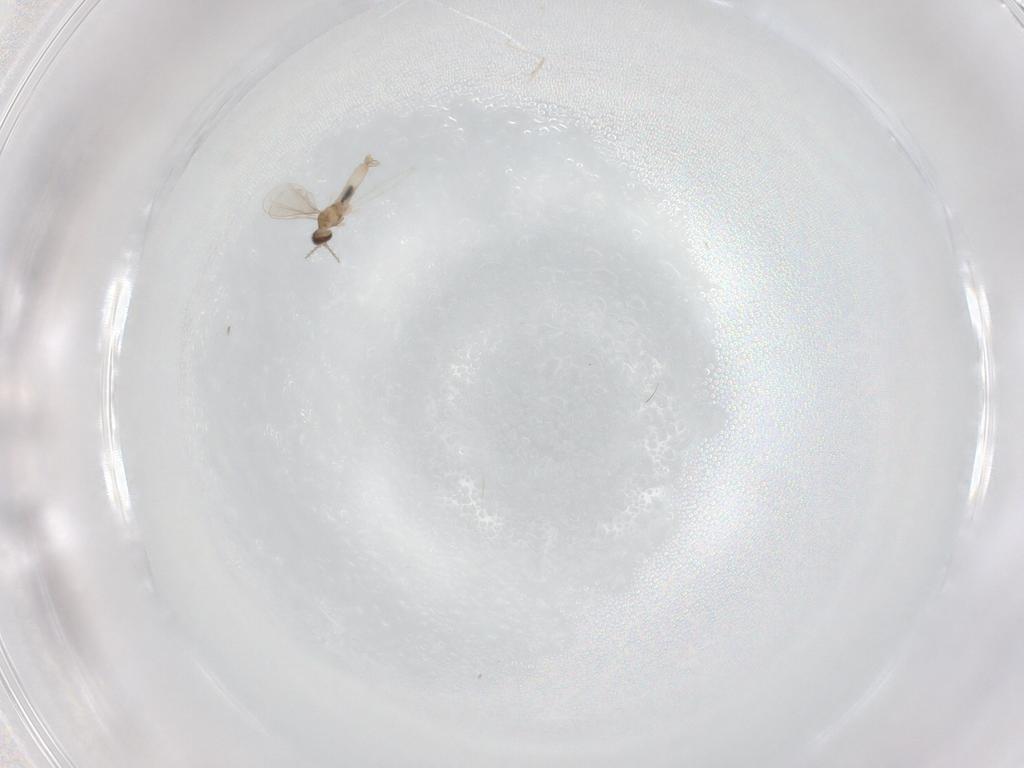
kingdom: Animalia
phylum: Arthropoda
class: Insecta
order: Diptera
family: Cecidomyiidae
